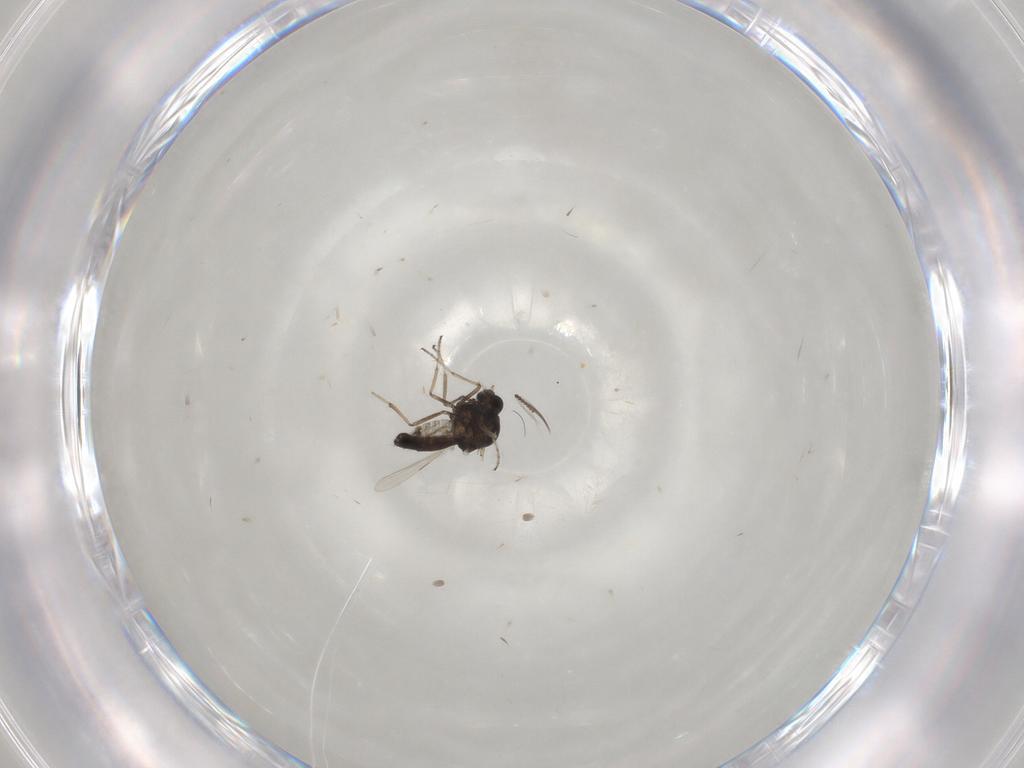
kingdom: Animalia
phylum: Arthropoda
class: Insecta
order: Diptera
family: Ceratopogonidae
